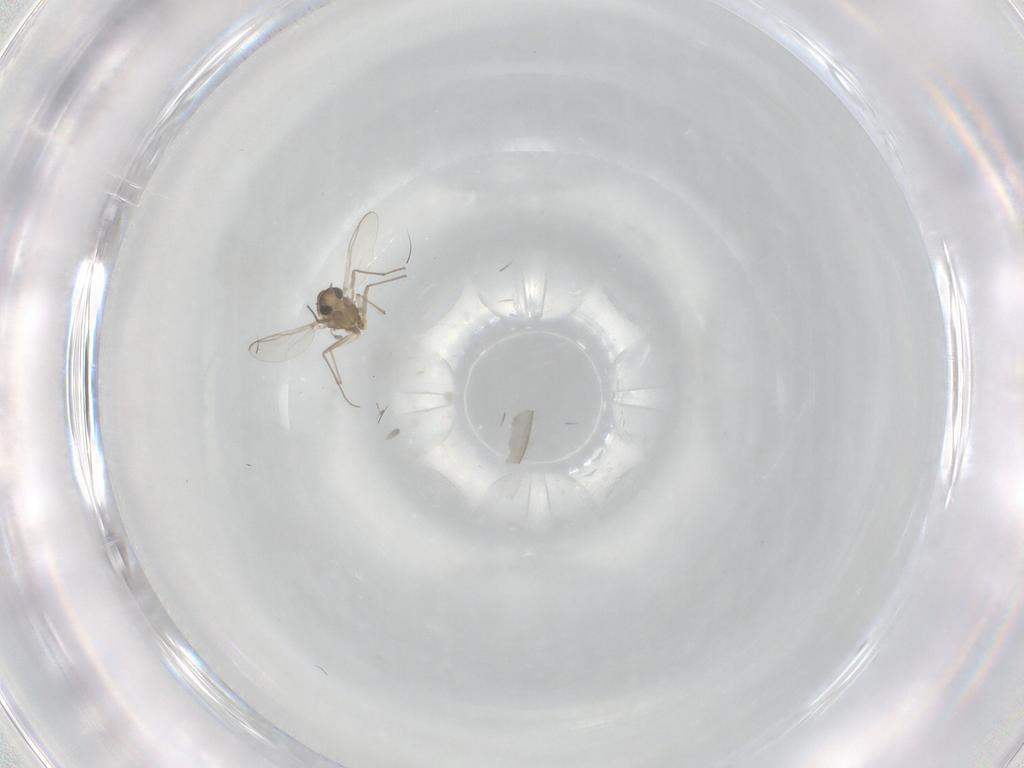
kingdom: Animalia
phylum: Arthropoda
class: Insecta
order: Diptera
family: Chironomidae
